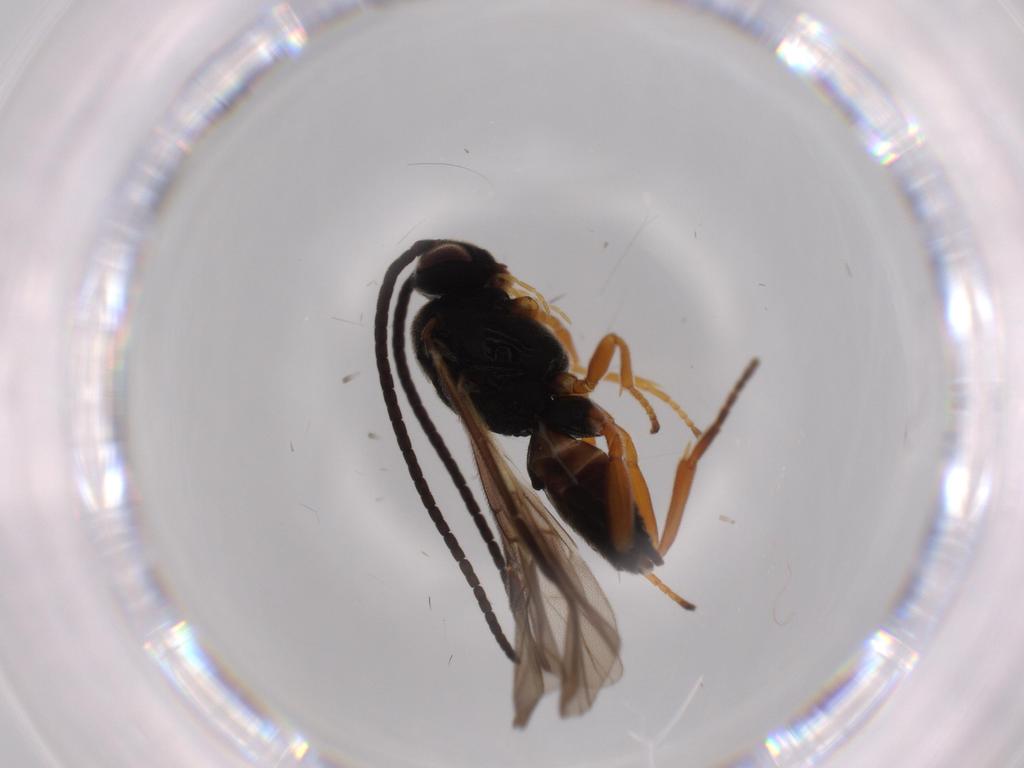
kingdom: Animalia
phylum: Arthropoda
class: Insecta
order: Hymenoptera
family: Braconidae
